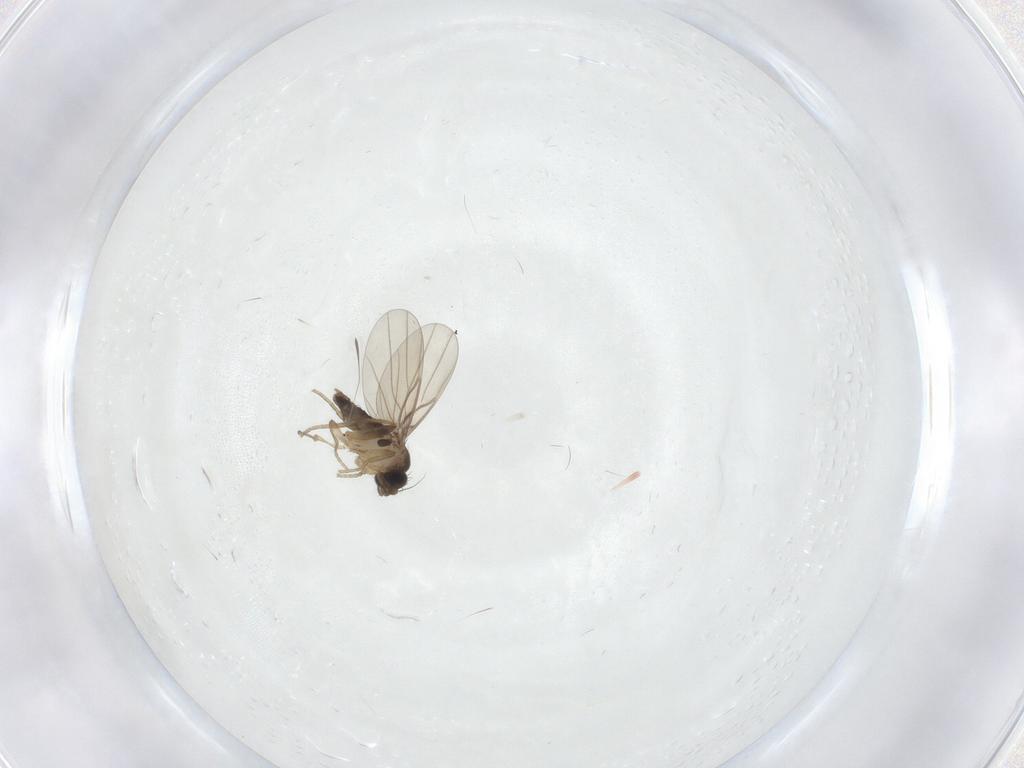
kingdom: Animalia
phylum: Arthropoda
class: Insecta
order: Diptera
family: Phoridae
